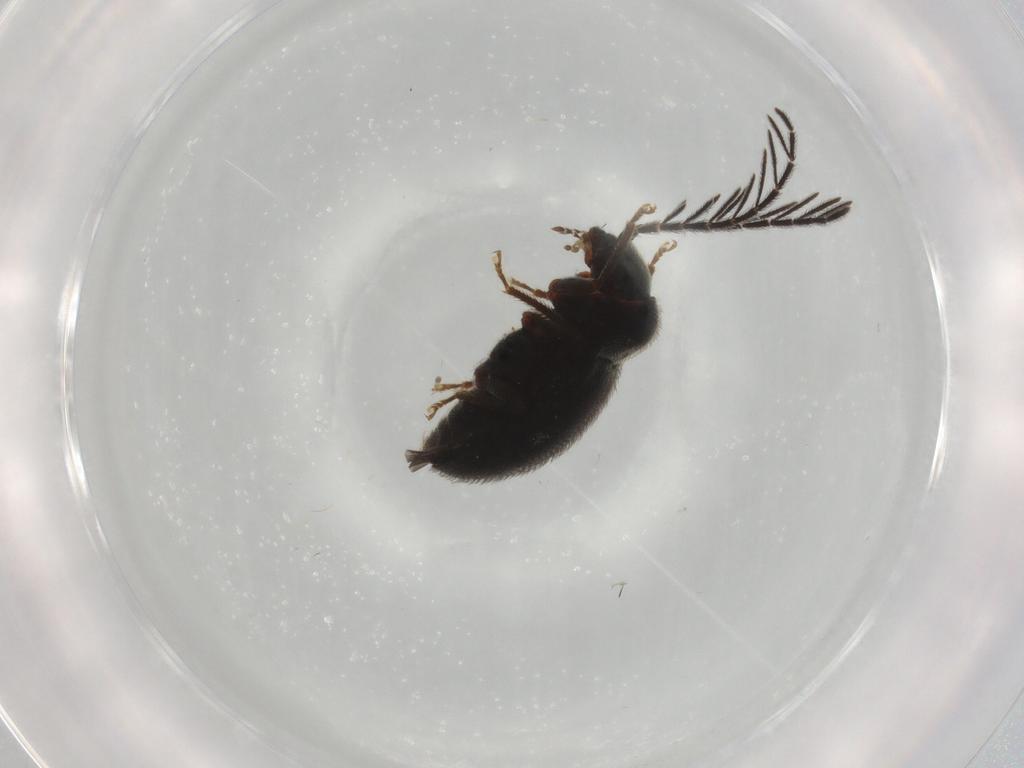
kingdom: Animalia
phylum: Arthropoda
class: Insecta
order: Coleoptera
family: Ptilodactylidae
